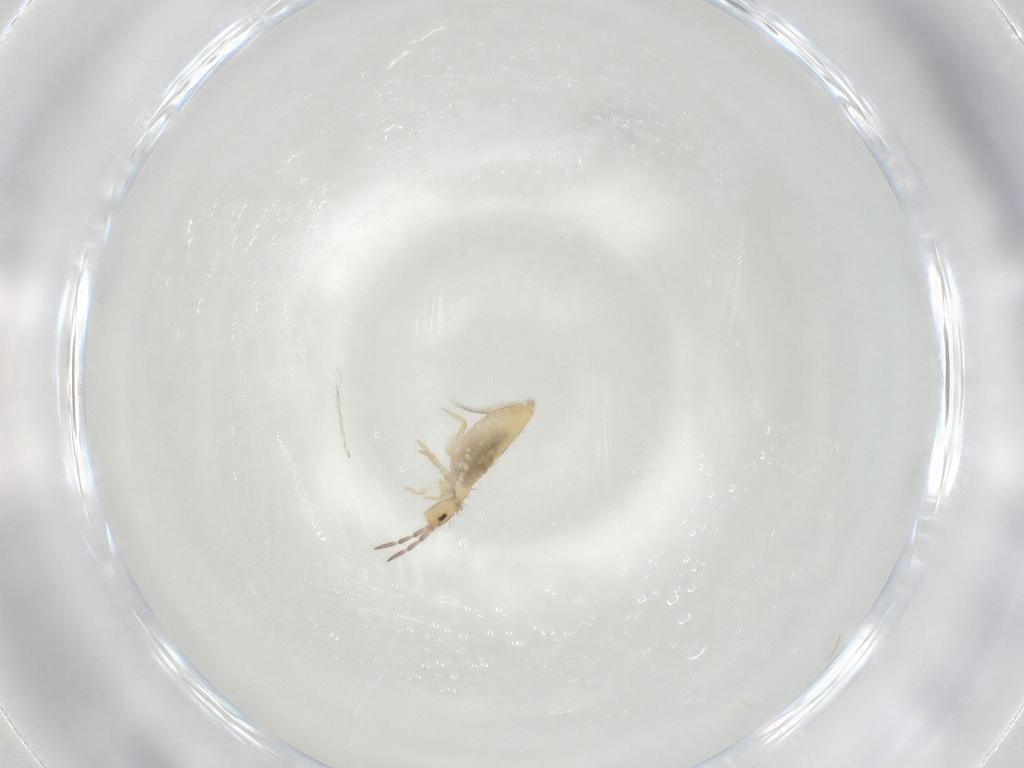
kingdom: Animalia
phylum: Arthropoda
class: Collembola
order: Entomobryomorpha
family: Entomobryidae
